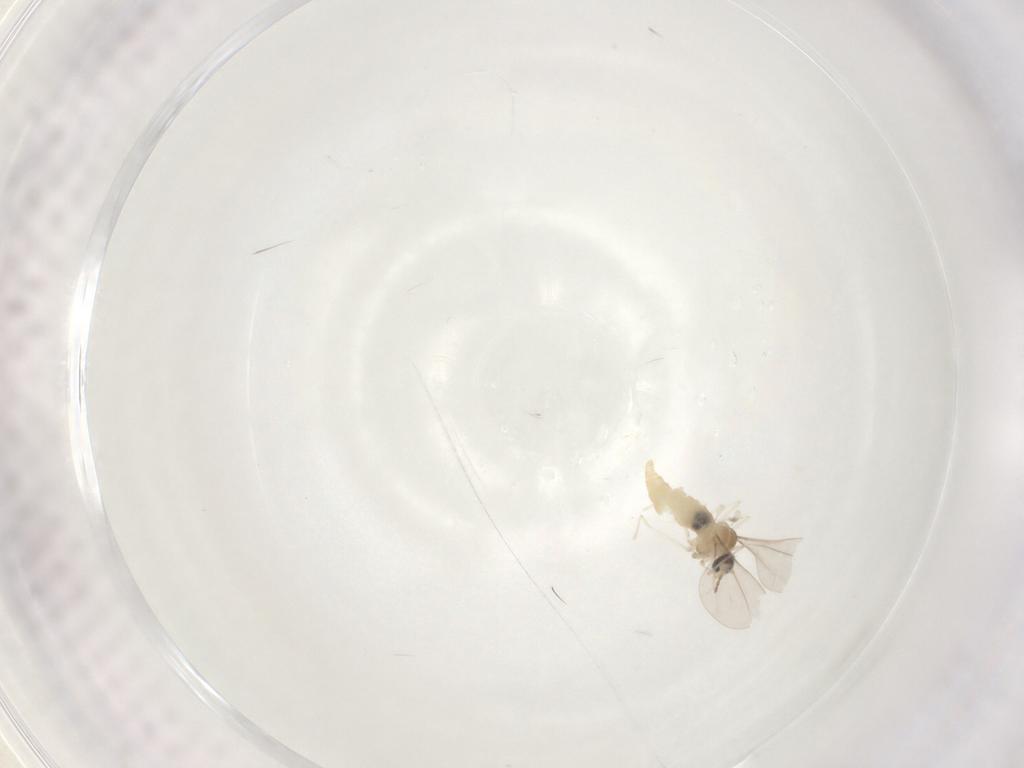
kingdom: Animalia
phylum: Arthropoda
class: Insecta
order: Diptera
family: Cecidomyiidae
